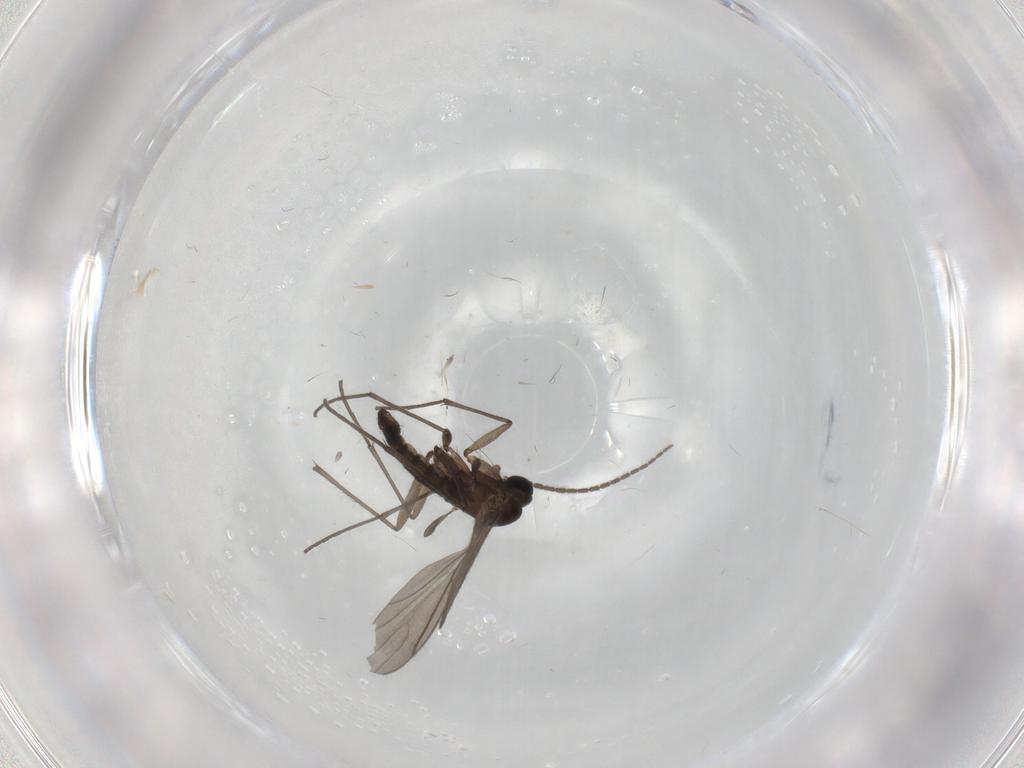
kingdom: Animalia
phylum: Arthropoda
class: Insecta
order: Diptera
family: Sciaridae
